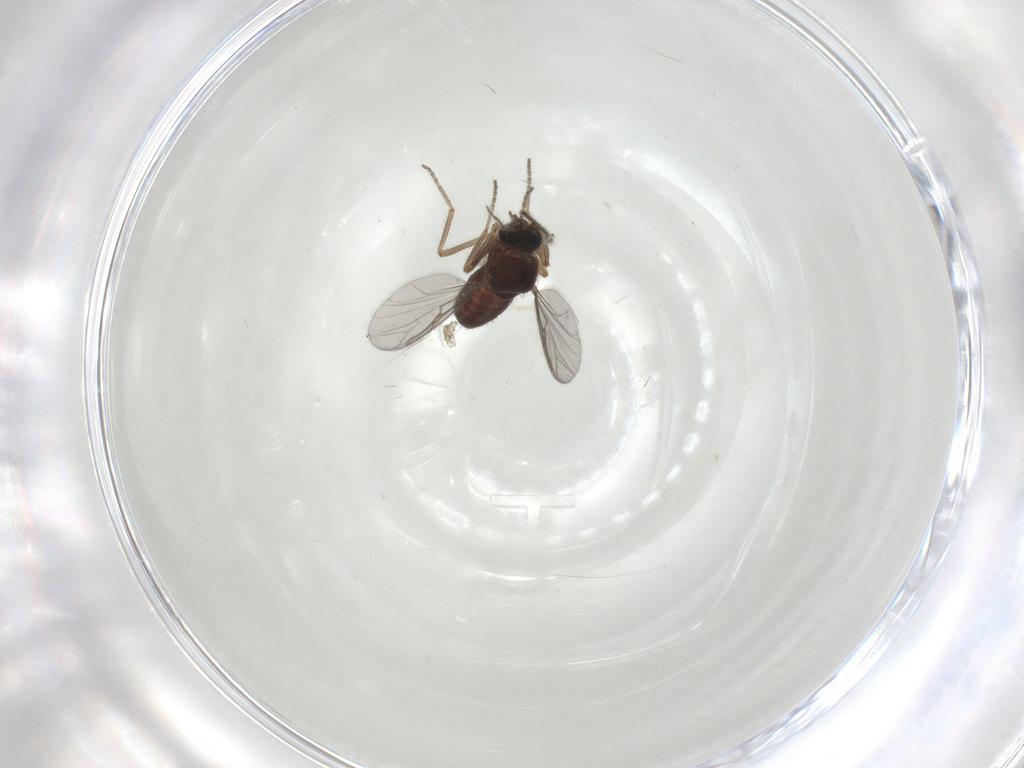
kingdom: Animalia
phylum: Arthropoda
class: Insecta
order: Diptera
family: Ceratopogonidae
